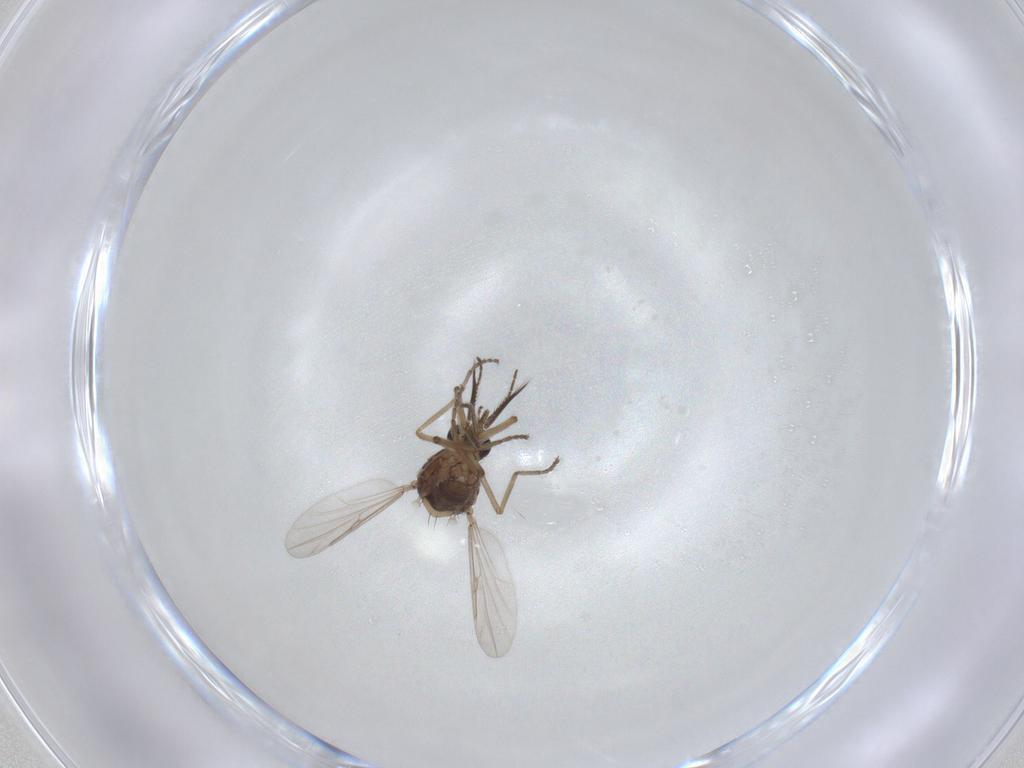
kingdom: Animalia
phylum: Arthropoda
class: Insecta
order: Diptera
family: Ceratopogonidae
